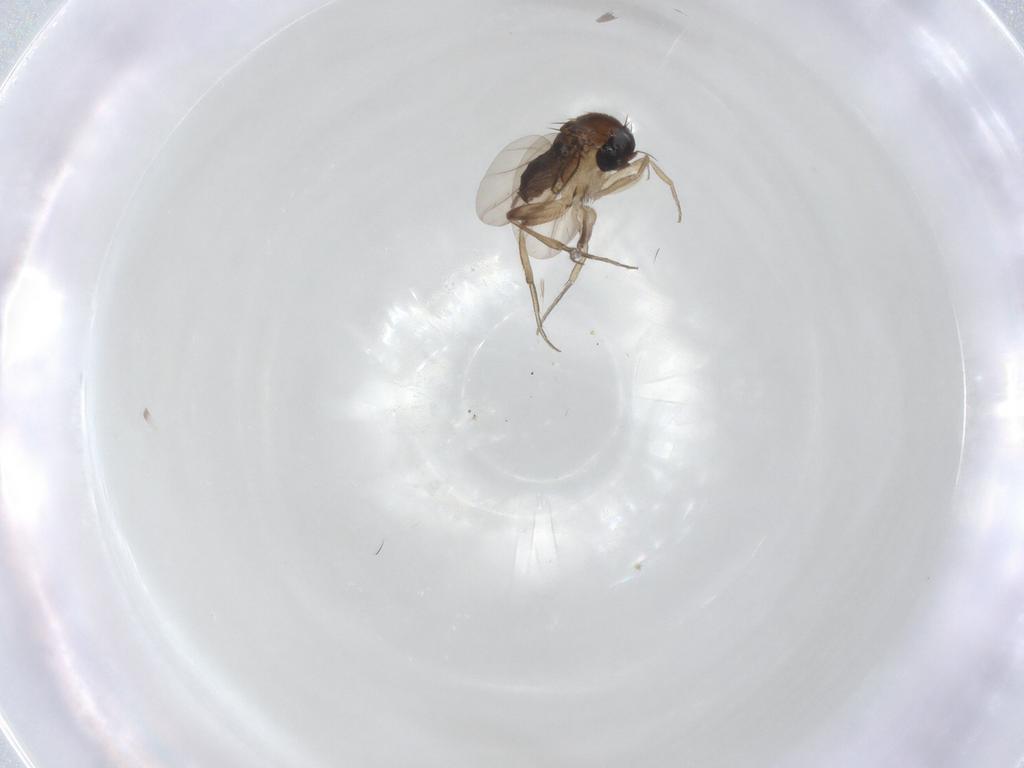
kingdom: Animalia
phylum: Arthropoda
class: Insecta
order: Diptera
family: Phoridae
